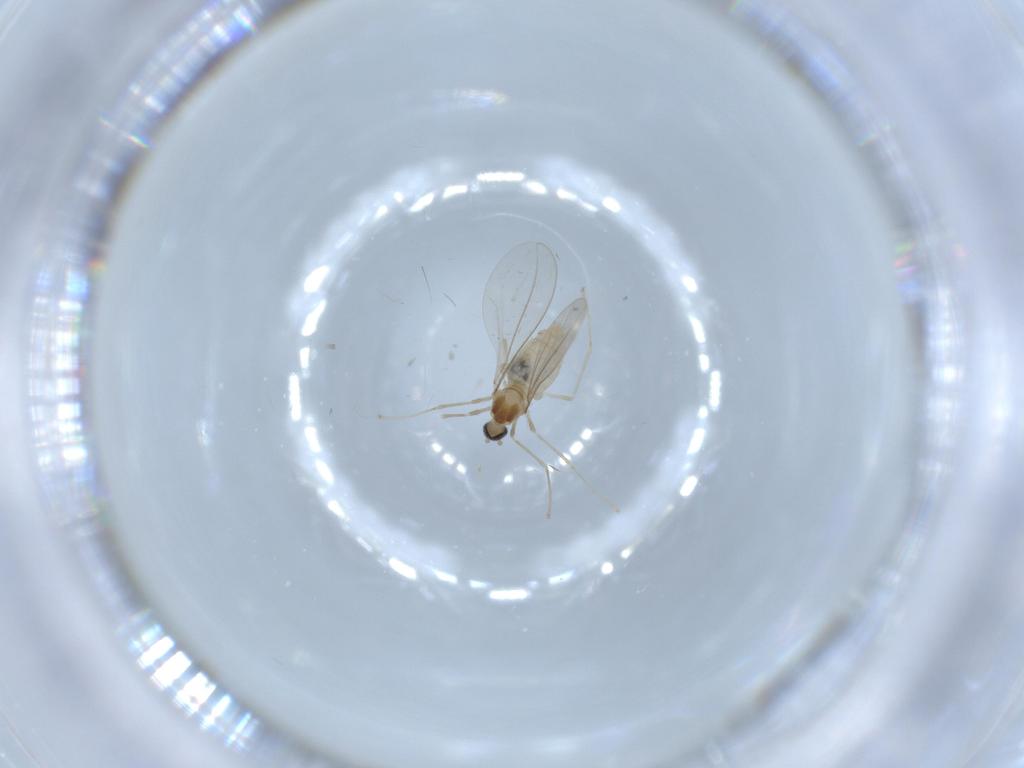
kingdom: Animalia
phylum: Arthropoda
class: Insecta
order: Diptera
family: Cecidomyiidae
